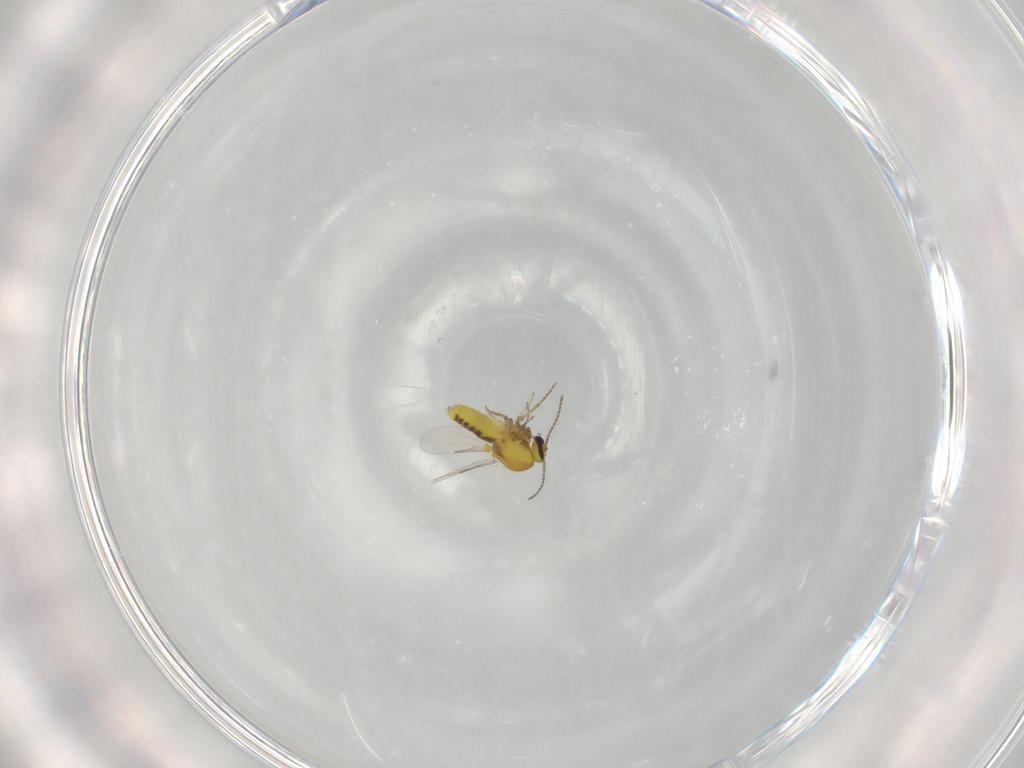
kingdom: Animalia
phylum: Arthropoda
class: Insecta
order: Diptera
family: Ceratopogonidae
